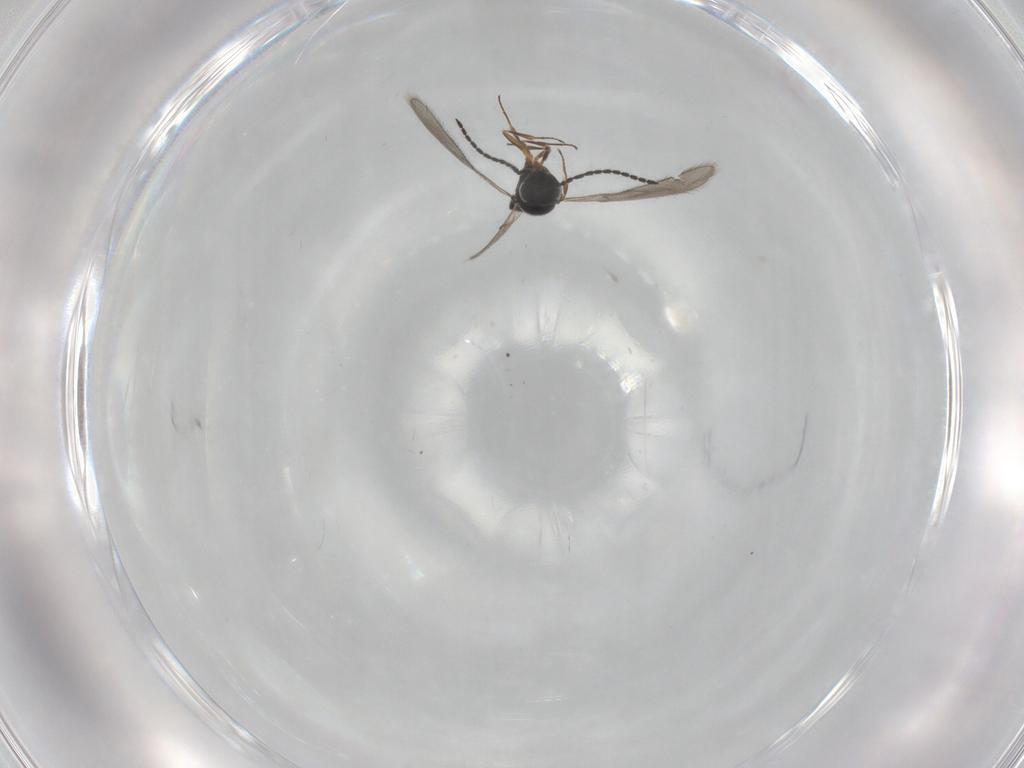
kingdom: Animalia
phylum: Arthropoda
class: Insecta
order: Hymenoptera
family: Scelionidae
